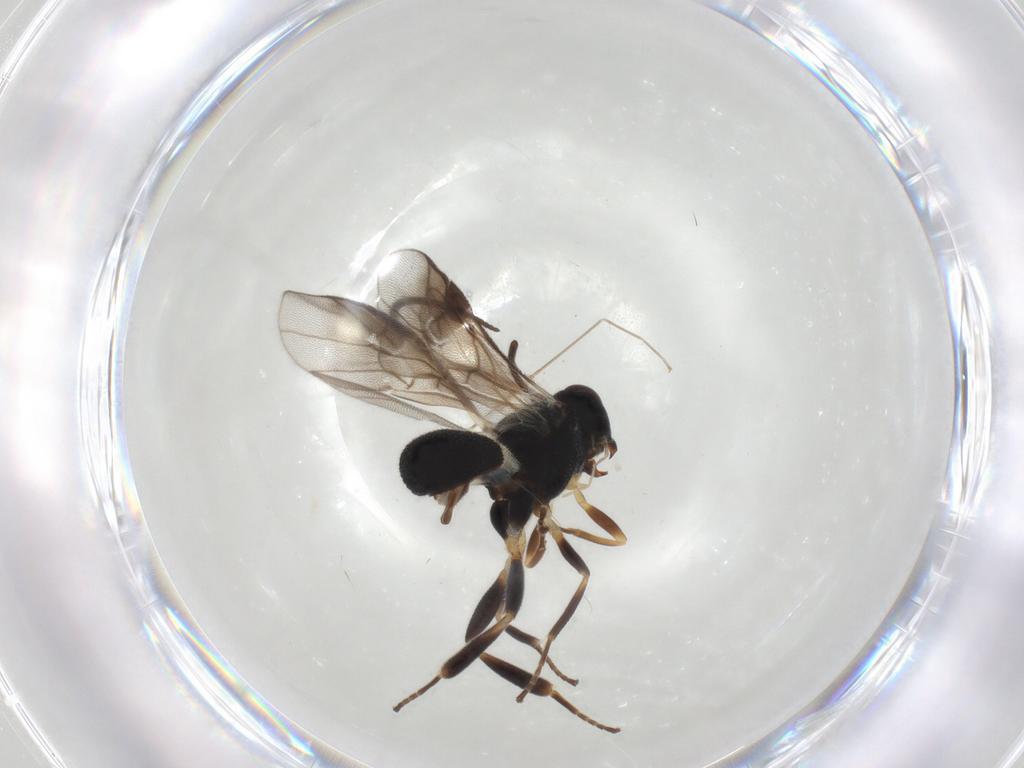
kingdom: Animalia
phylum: Arthropoda
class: Insecta
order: Hymenoptera
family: Braconidae
